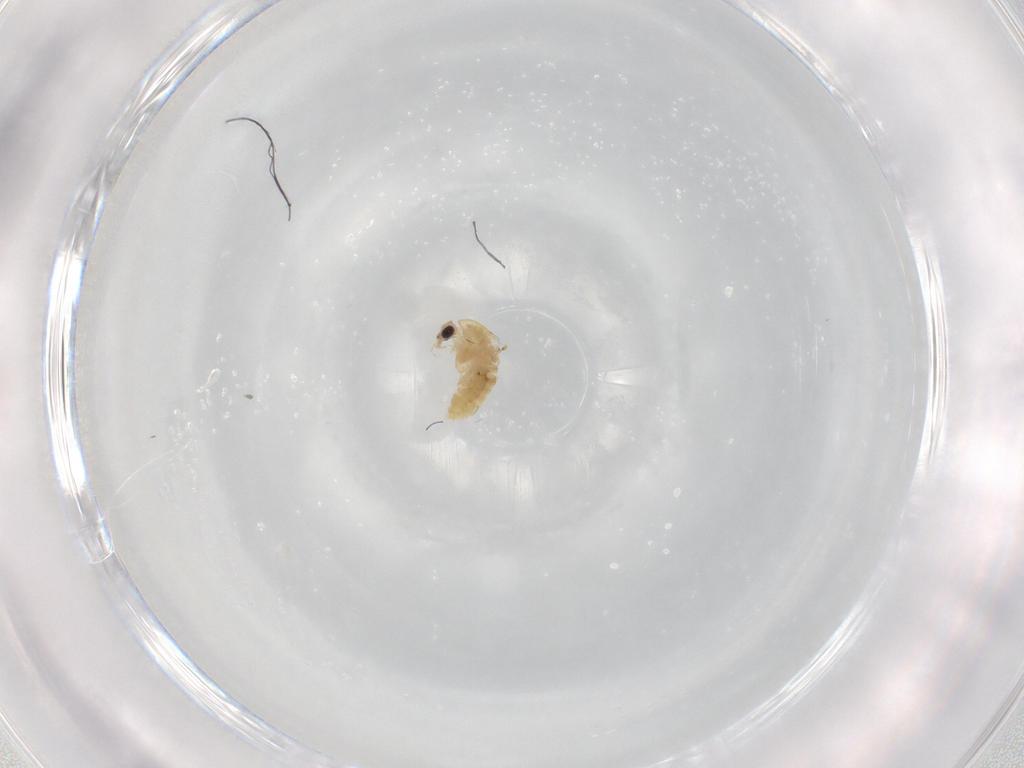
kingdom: Animalia
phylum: Arthropoda
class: Insecta
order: Diptera
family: Chironomidae
